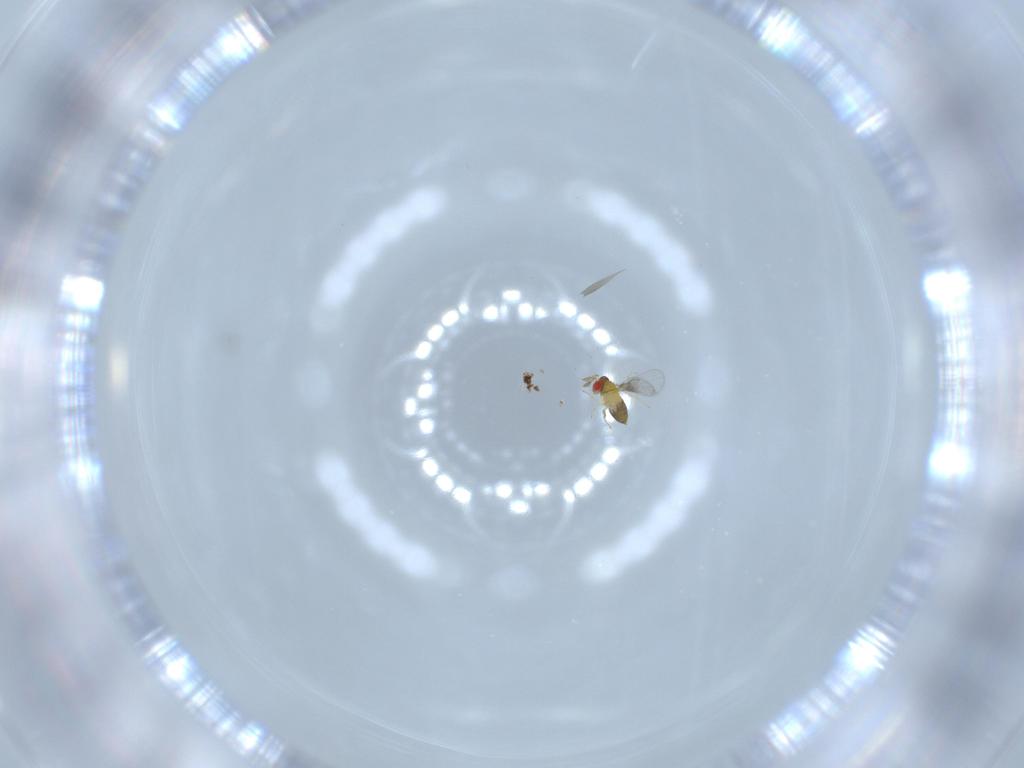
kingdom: Animalia
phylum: Arthropoda
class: Insecta
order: Hymenoptera
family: Trichogrammatidae
